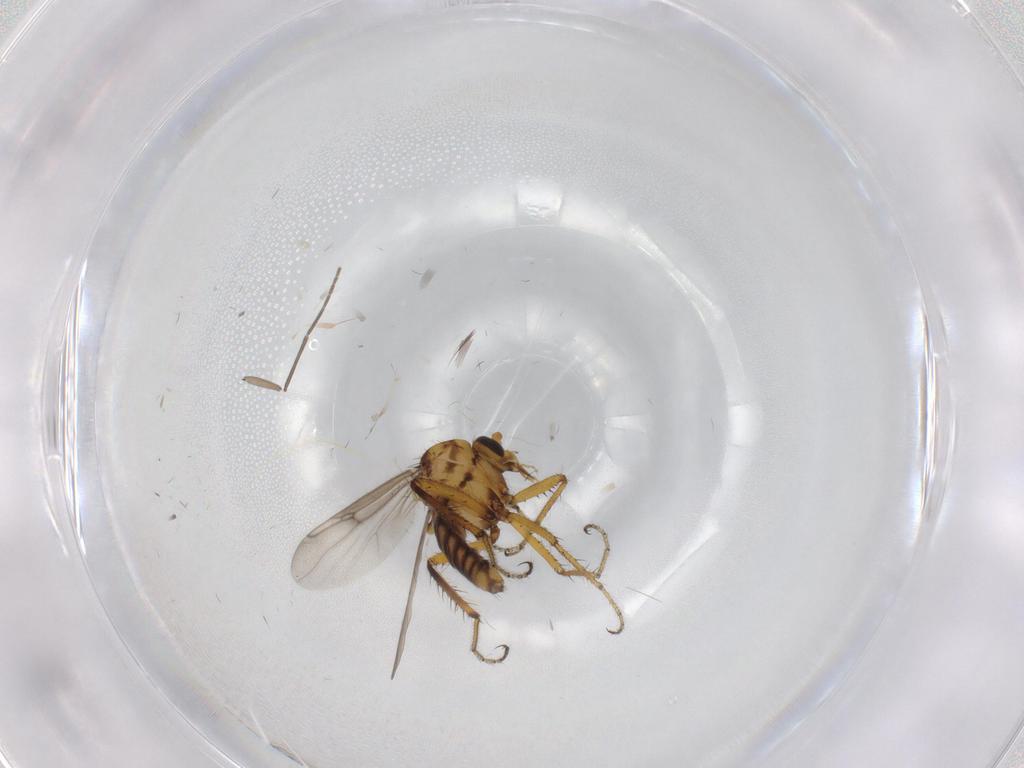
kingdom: Animalia
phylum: Arthropoda
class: Insecta
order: Diptera
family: Ceratopogonidae
